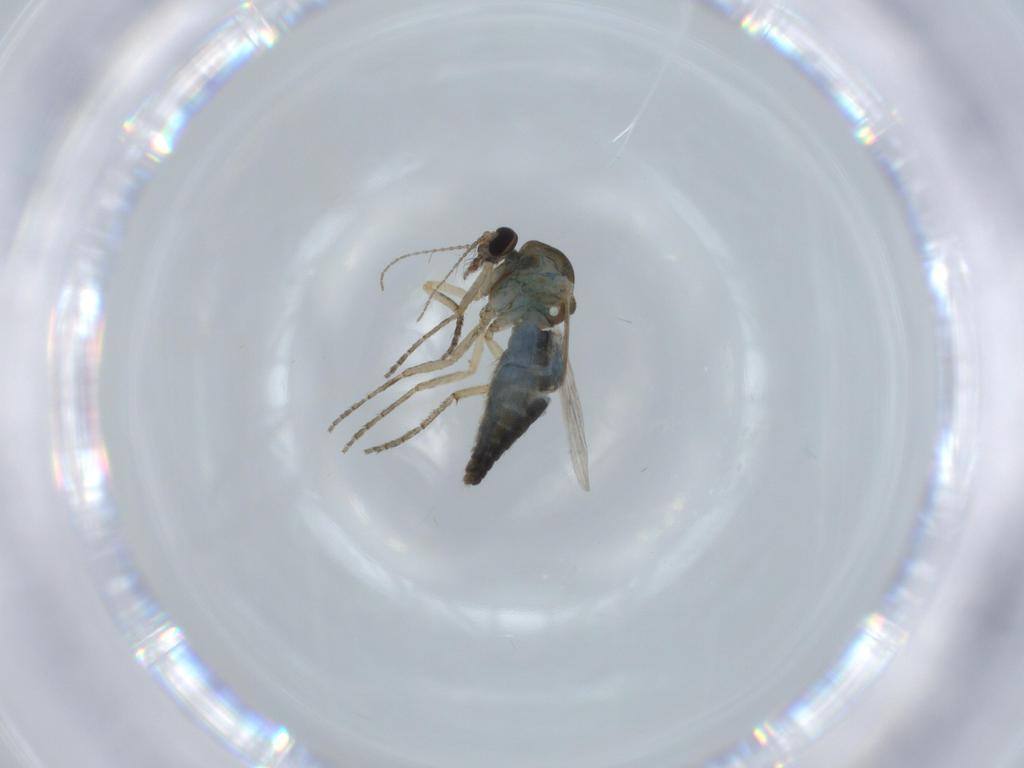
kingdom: Animalia
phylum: Arthropoda
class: Insecta
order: Diptera
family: Ceratopogonidae
